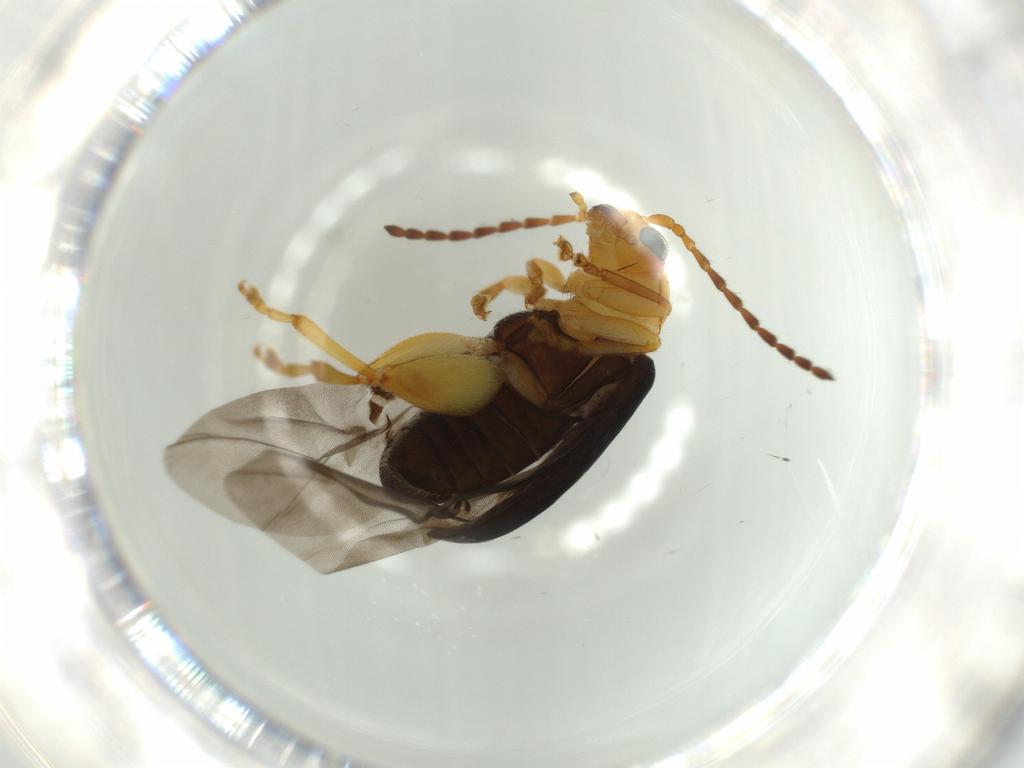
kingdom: Animalia
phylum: Arthropoda
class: Insecta
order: Coleoptera
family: Chrysomelidae
